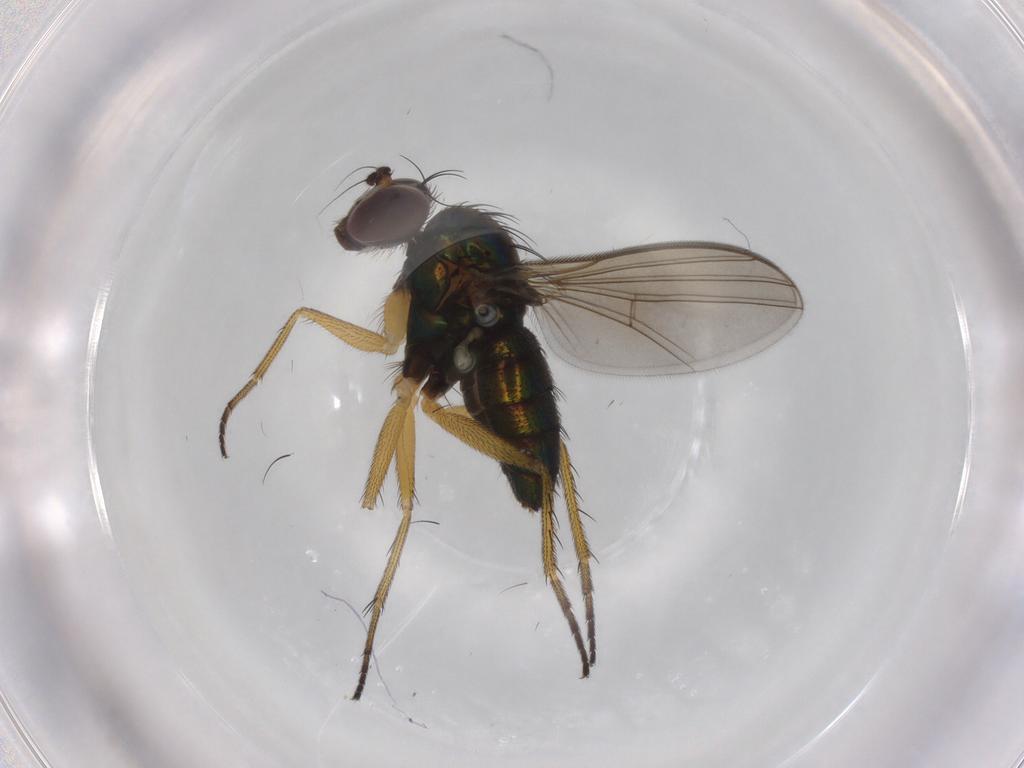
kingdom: Animalia
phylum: Arthropoda
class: Insecta
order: Diptera
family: Dolichopodidae
